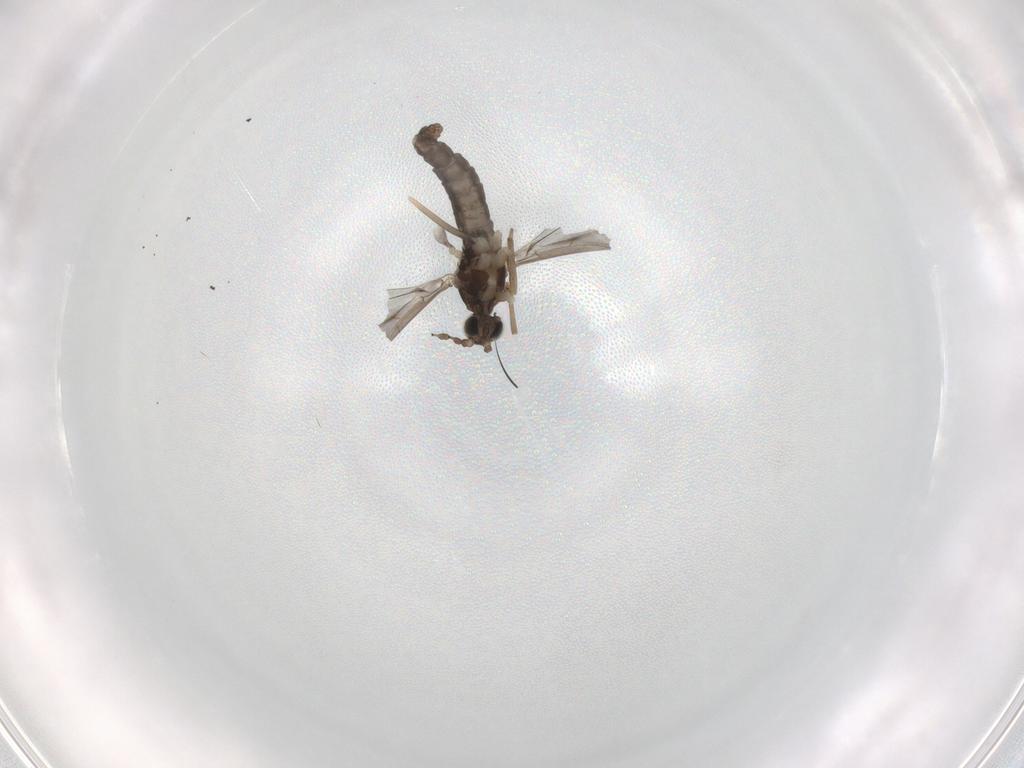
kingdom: Animalia
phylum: Arthropoda
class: Insecta
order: Diptera
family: Cecidomyiidae
